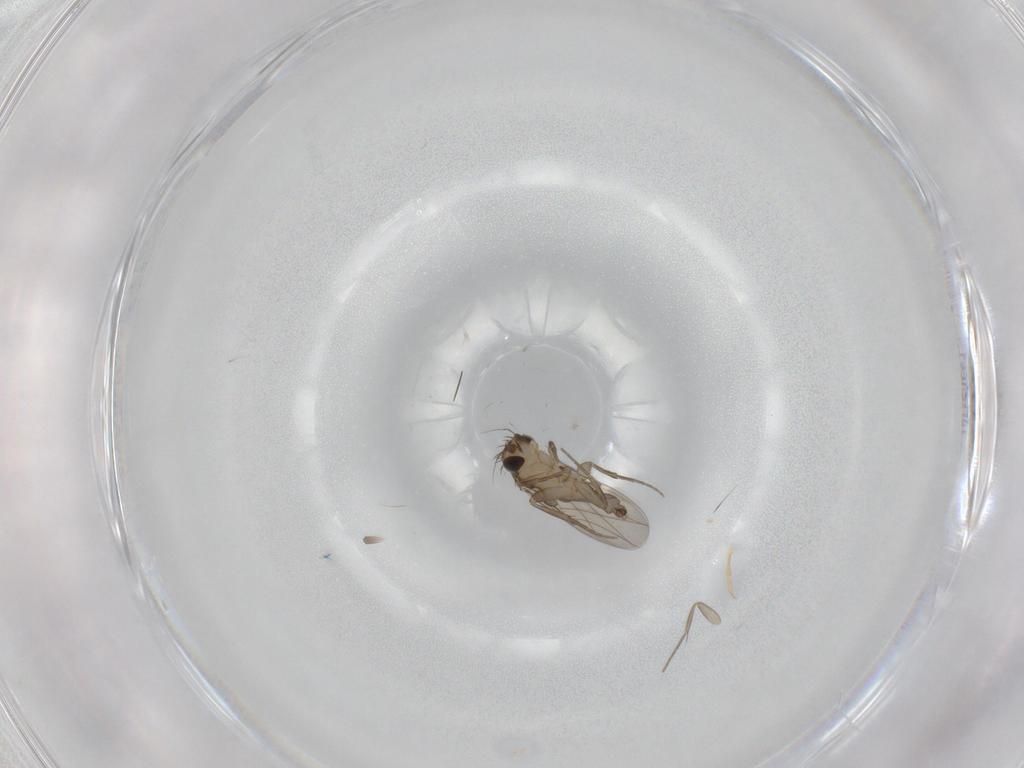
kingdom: Animalia
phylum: Arthropoda
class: Insecta
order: Diptera
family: Phoridae
